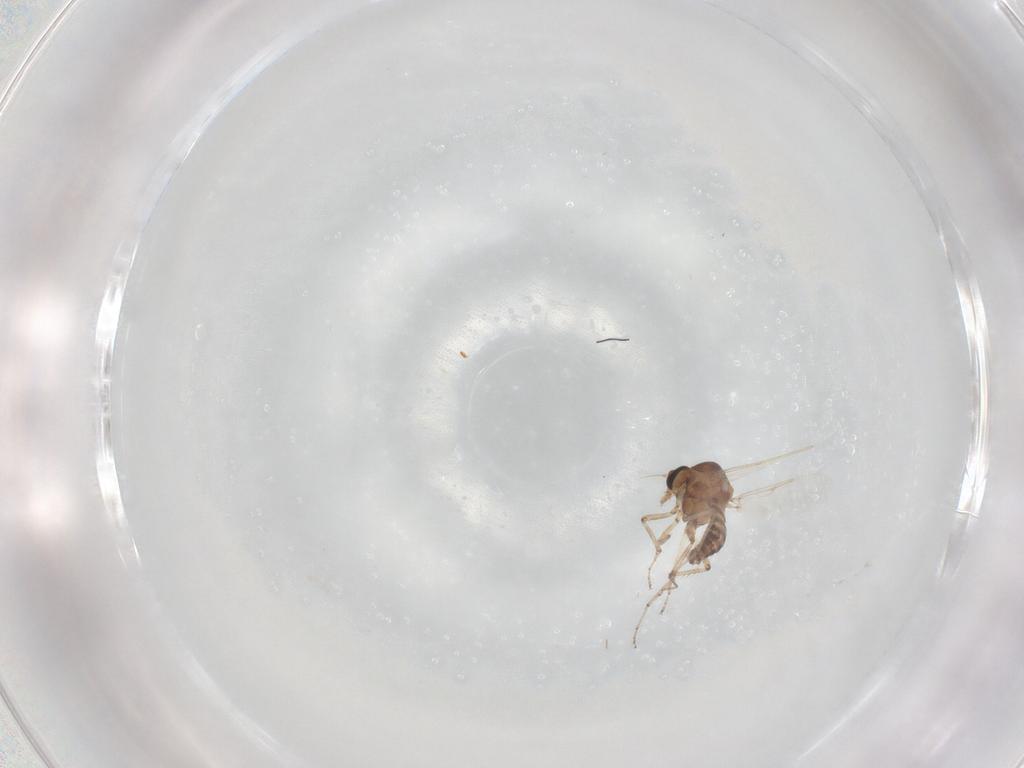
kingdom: Animalia
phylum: Arthropoda
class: Insecta
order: Diptera
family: Ceratopogonidae
